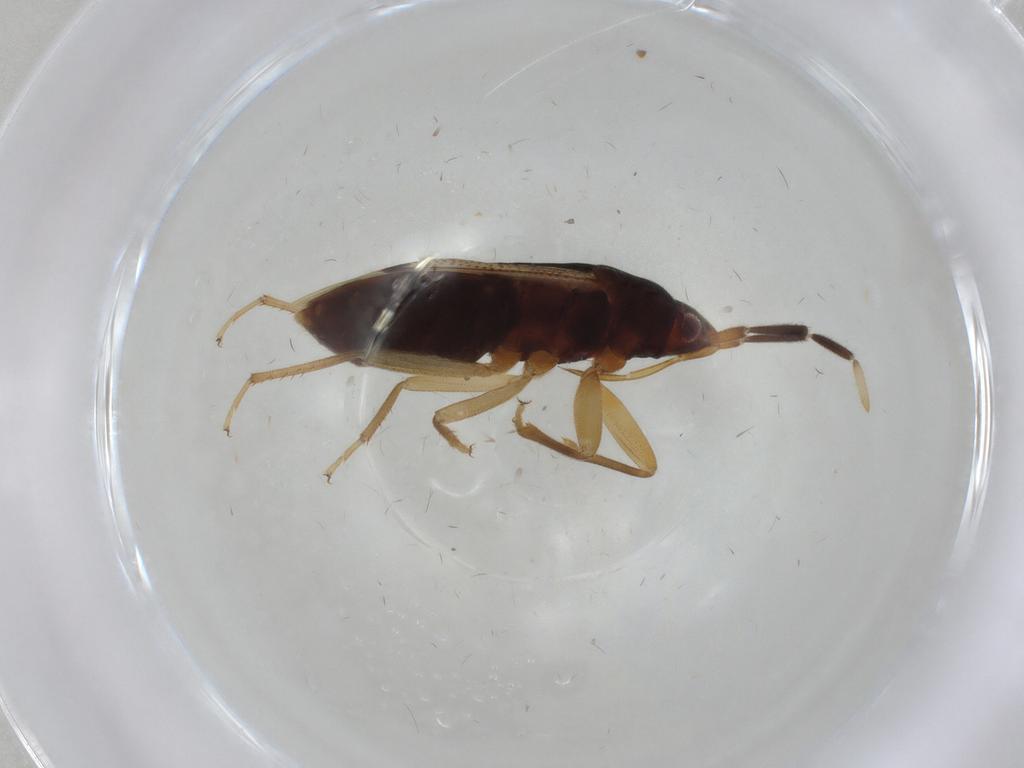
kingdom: Animalia
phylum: Arthropoda
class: Insecta
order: Hemiptera
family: Rhyparochromidae
